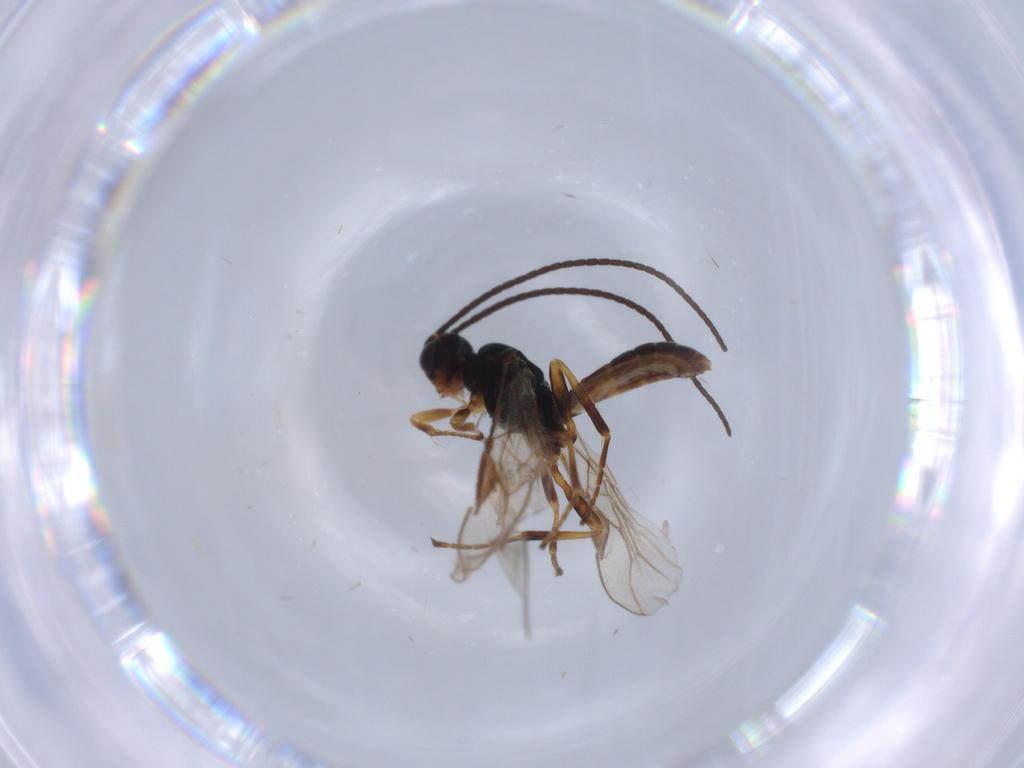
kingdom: Animalia
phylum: Arthropoda
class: Insecta
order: Hymenoptera
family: Braconidae
